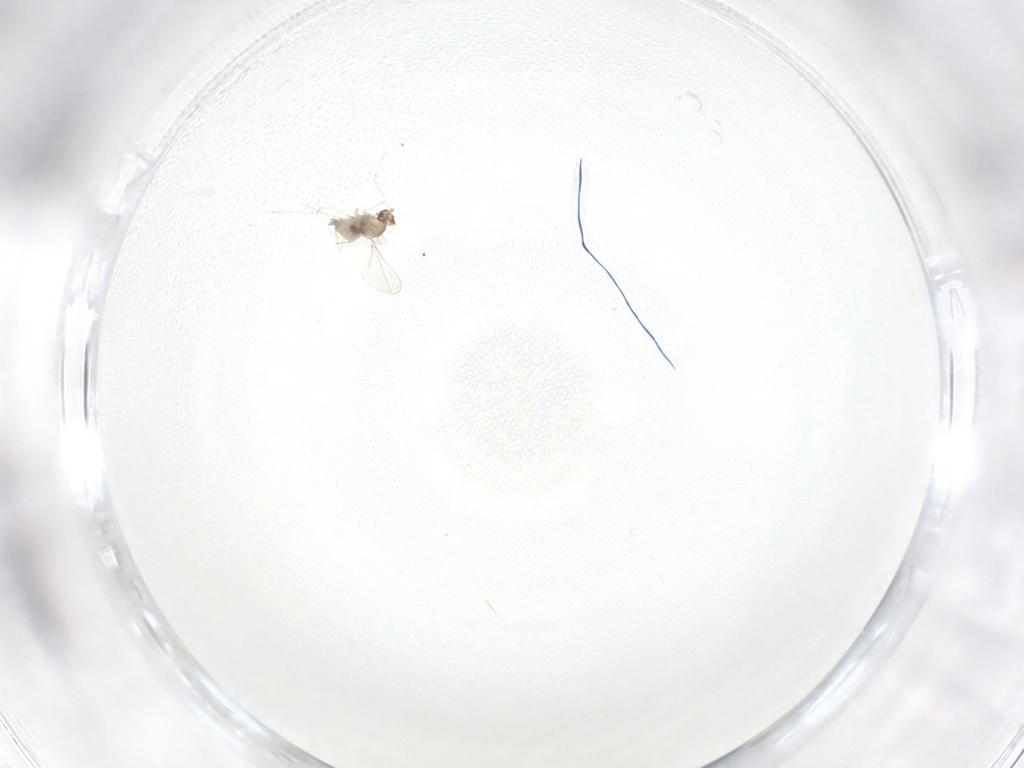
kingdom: Animalia
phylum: Arthropoda
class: Insecta
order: Diptera
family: Cecidomyiidae
